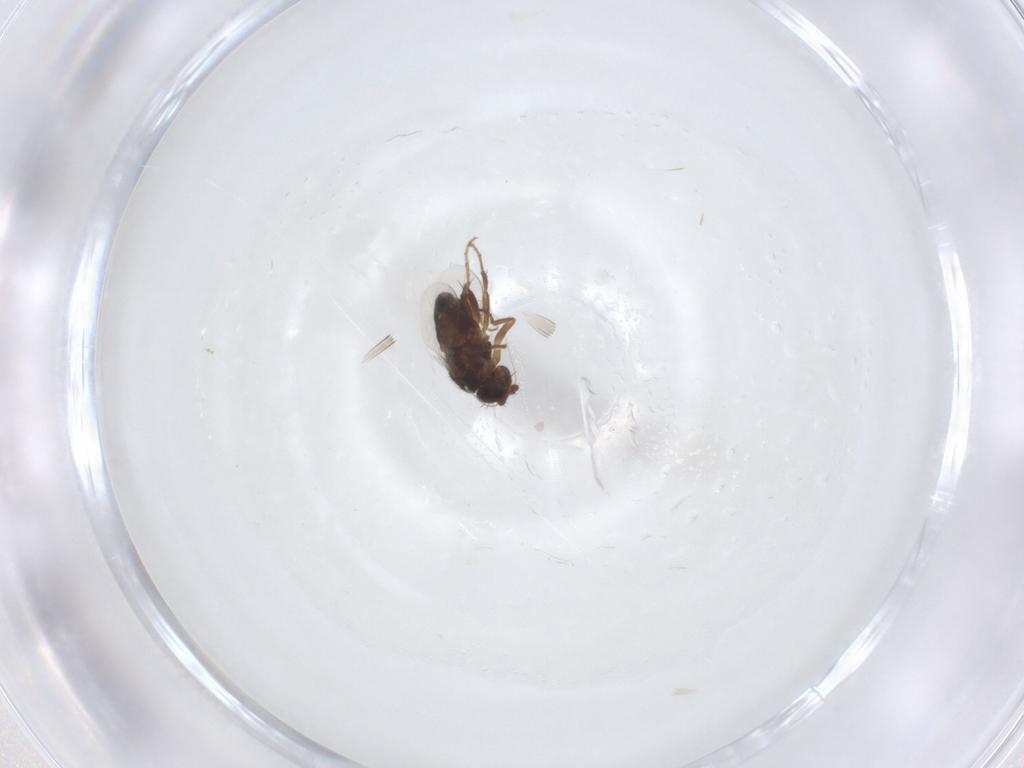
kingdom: Animalia
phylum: Arthropoda
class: Insecta
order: Diptera
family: Sphaeroceridae
